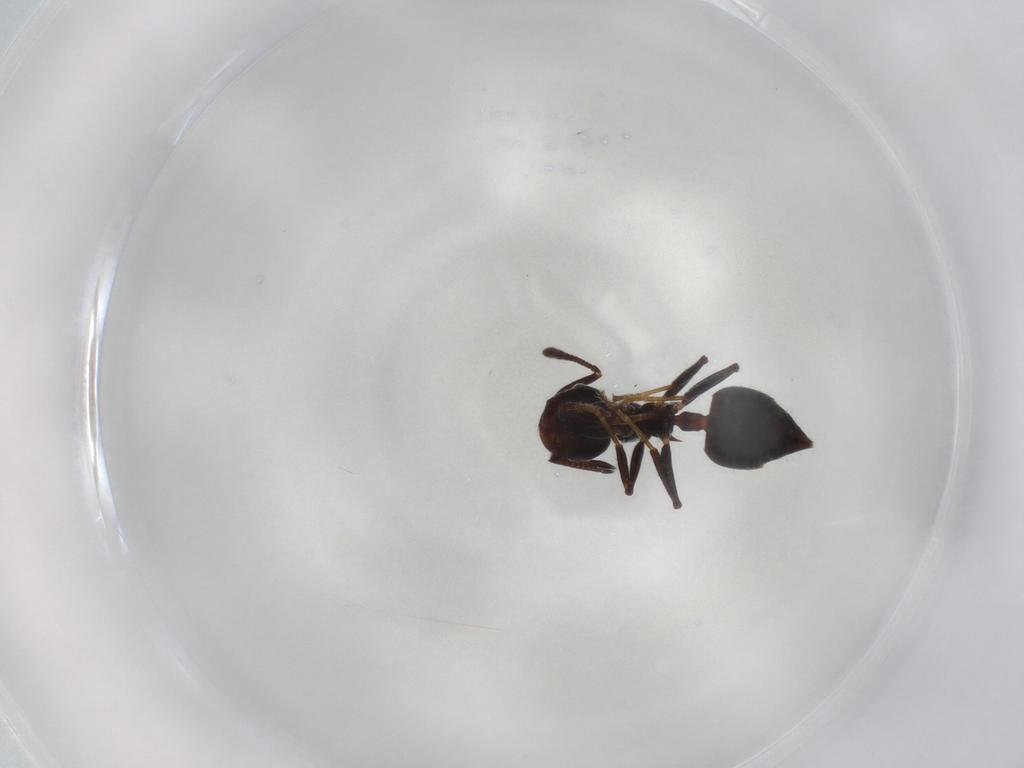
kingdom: Animalia
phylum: Arthropoda
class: Insecta
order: Hymenoptera
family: Formicidae
